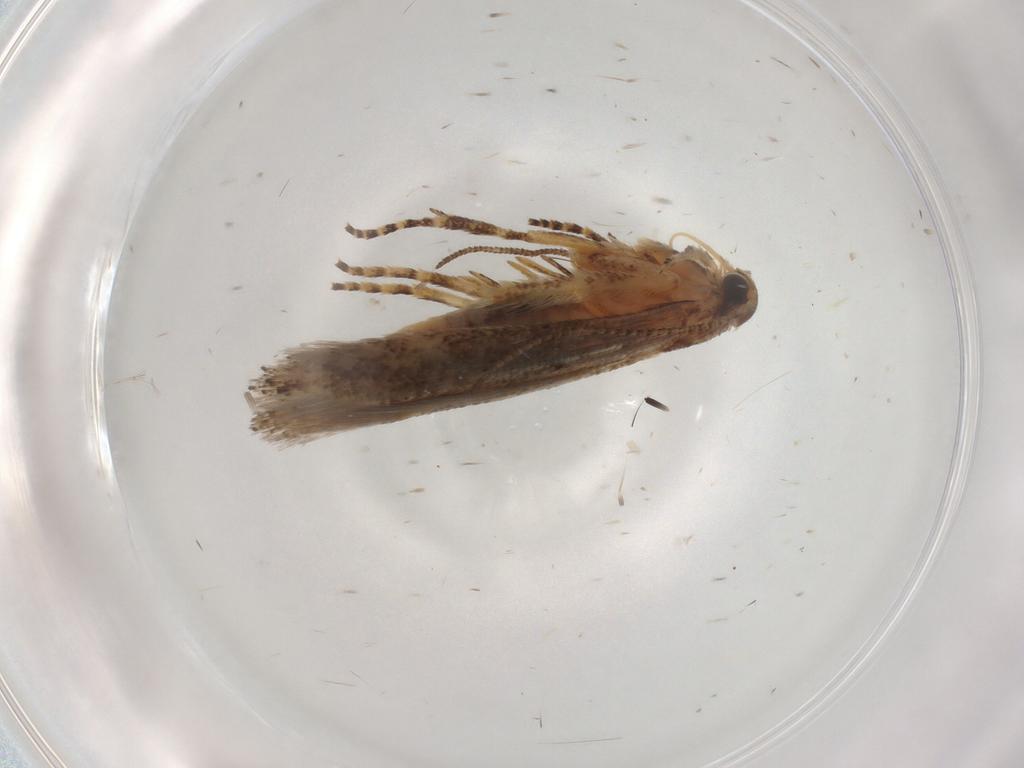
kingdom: Animalia
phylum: Arthropoda
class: Insecta
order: Lepidoptera
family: Gelechiidae
